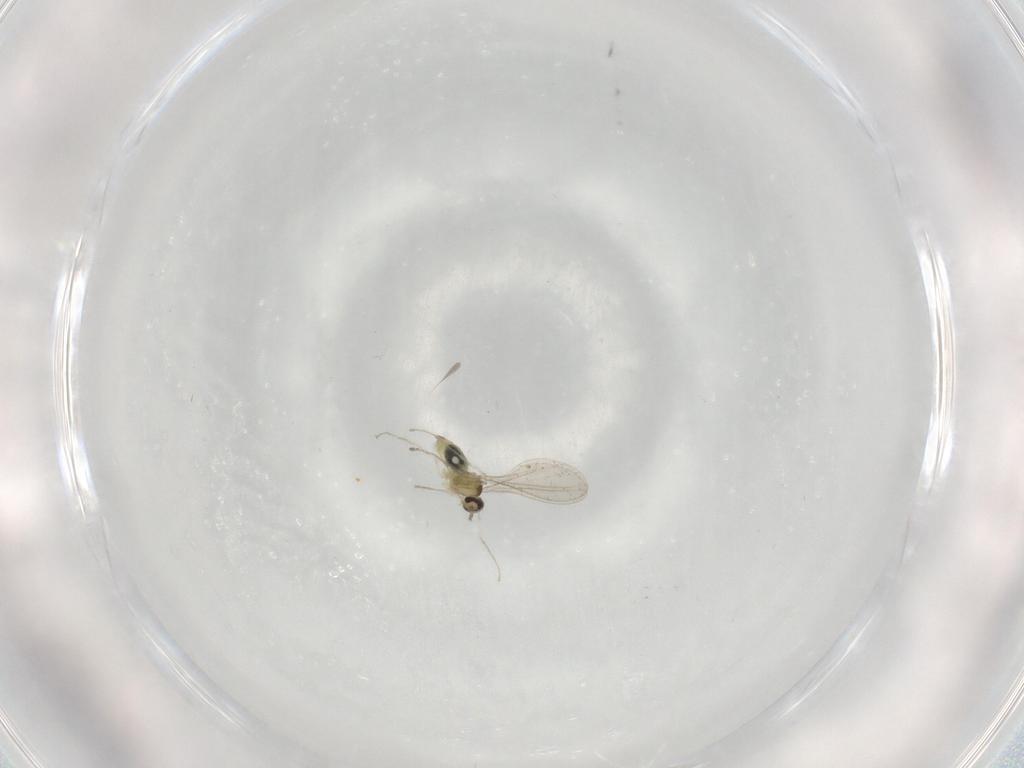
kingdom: Animalia
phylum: Arthropoda
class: Insecta
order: Diptera
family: Cecidomyiidae
